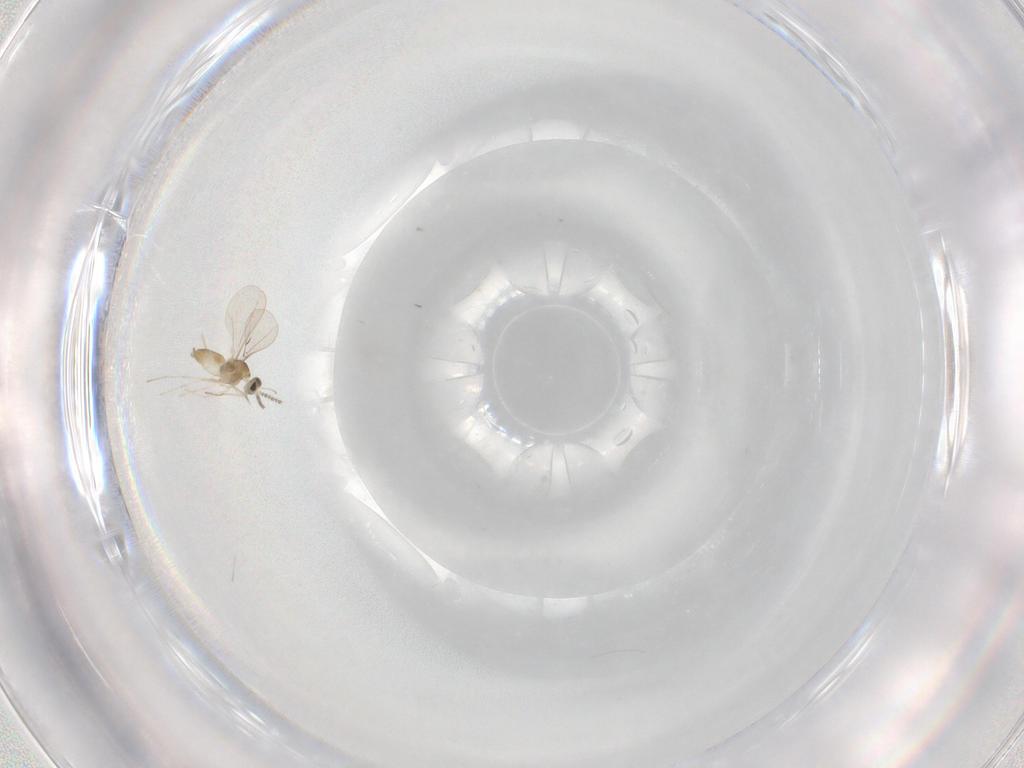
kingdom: Animalia
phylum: Arthropoda
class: Insecta
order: Diptera
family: Cecidomyiidae
